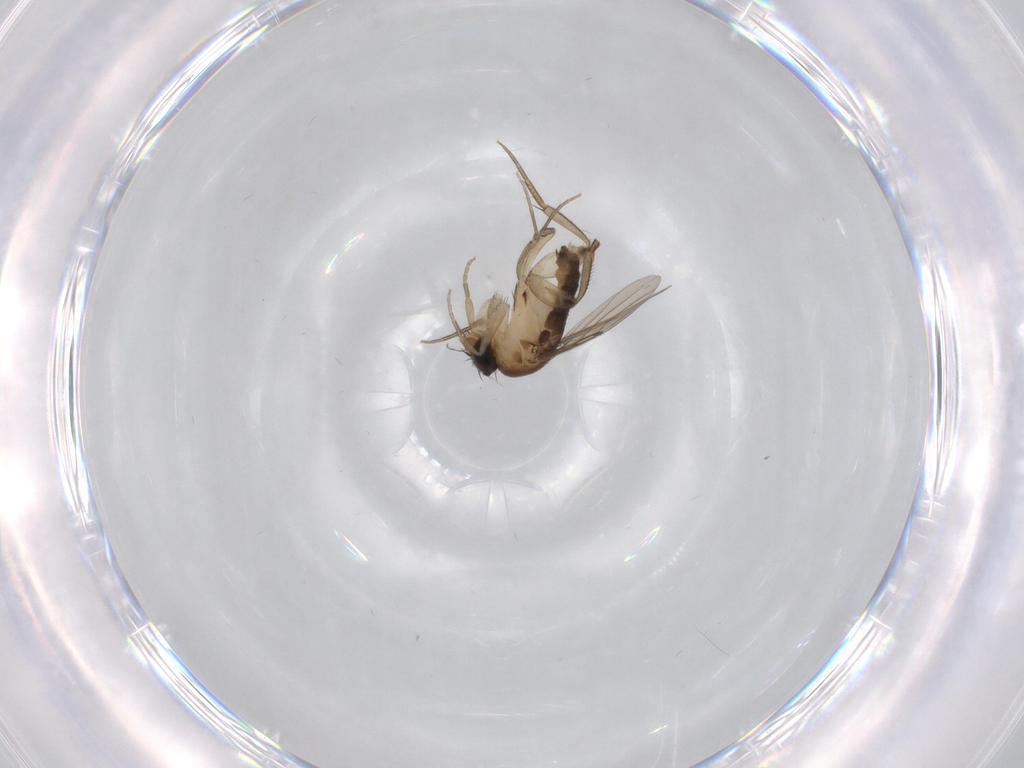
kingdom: Animalia
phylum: Arthropoda
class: Insecta
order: Diptera
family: Phoridae
